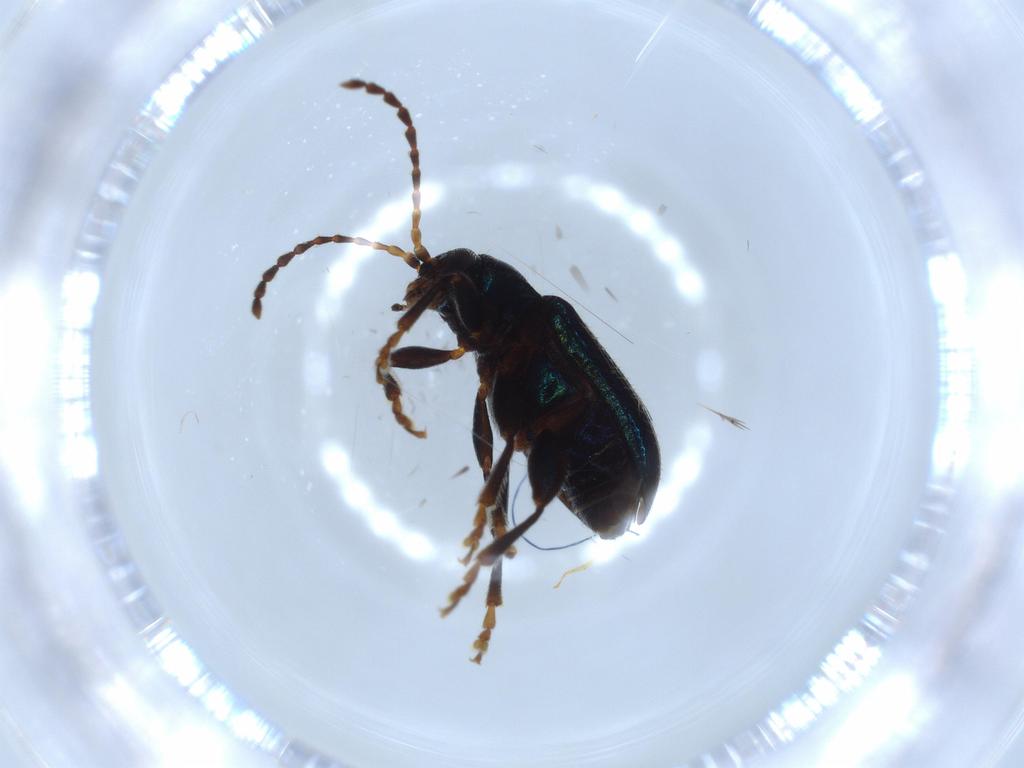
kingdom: Animalia
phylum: Arthropoda
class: Insecta
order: Coleoptera
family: Chrysomelidae
